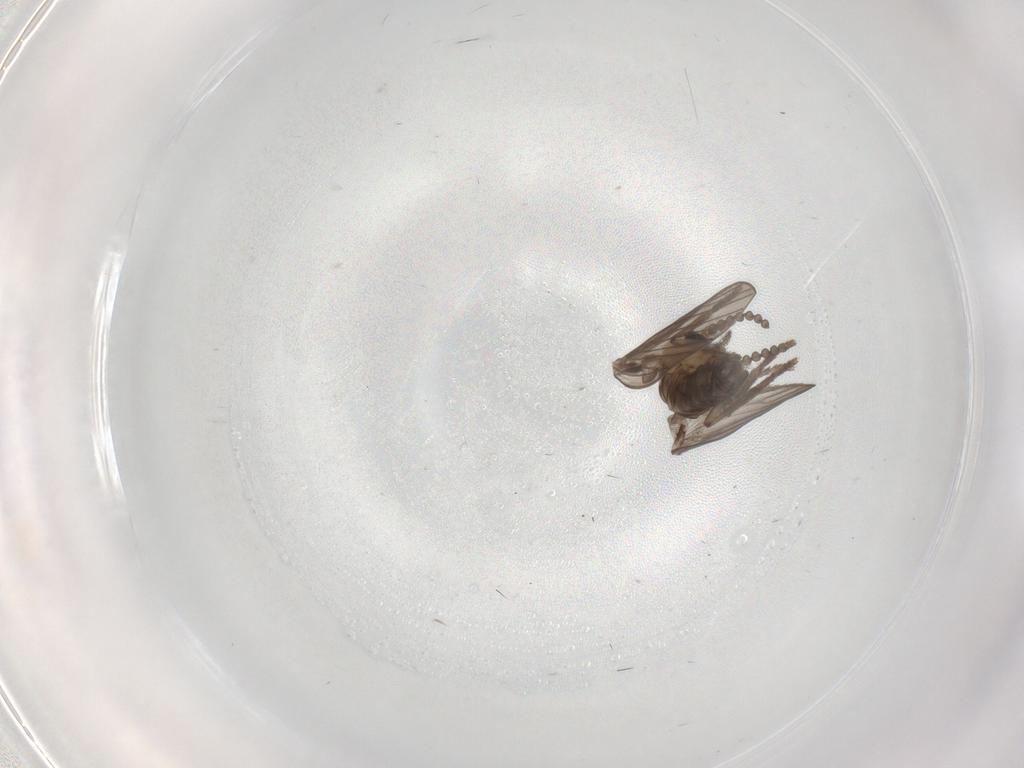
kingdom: Animalia
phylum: Arthropoda
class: Insecta
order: Diptera
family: Psychodidae
